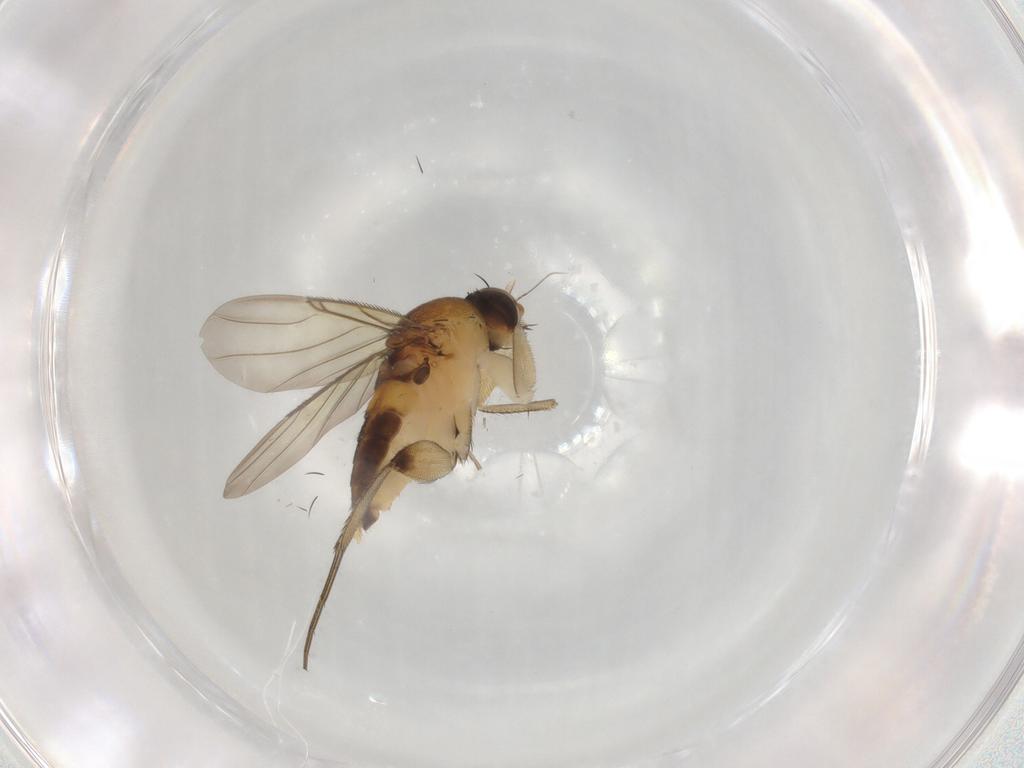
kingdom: Animalia
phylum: Arthropoda
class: Insecta
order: Diptera
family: Phoridae
